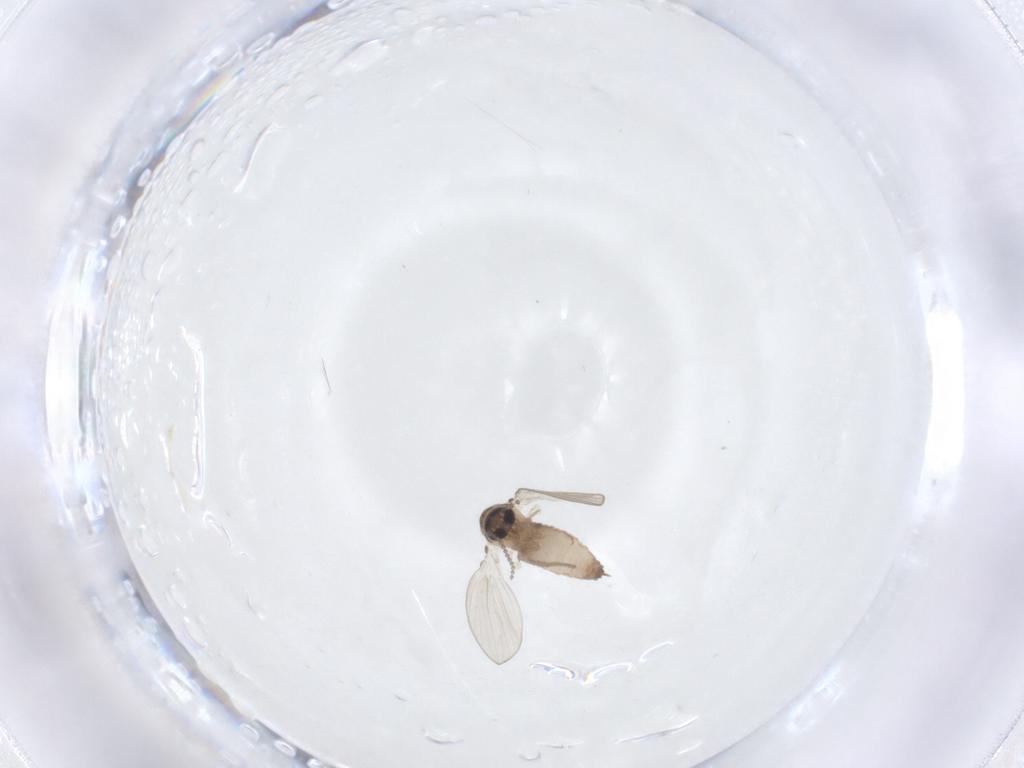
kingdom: Animalia
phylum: Arthropoda
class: Insecta
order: Diptera
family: Psychodidae
